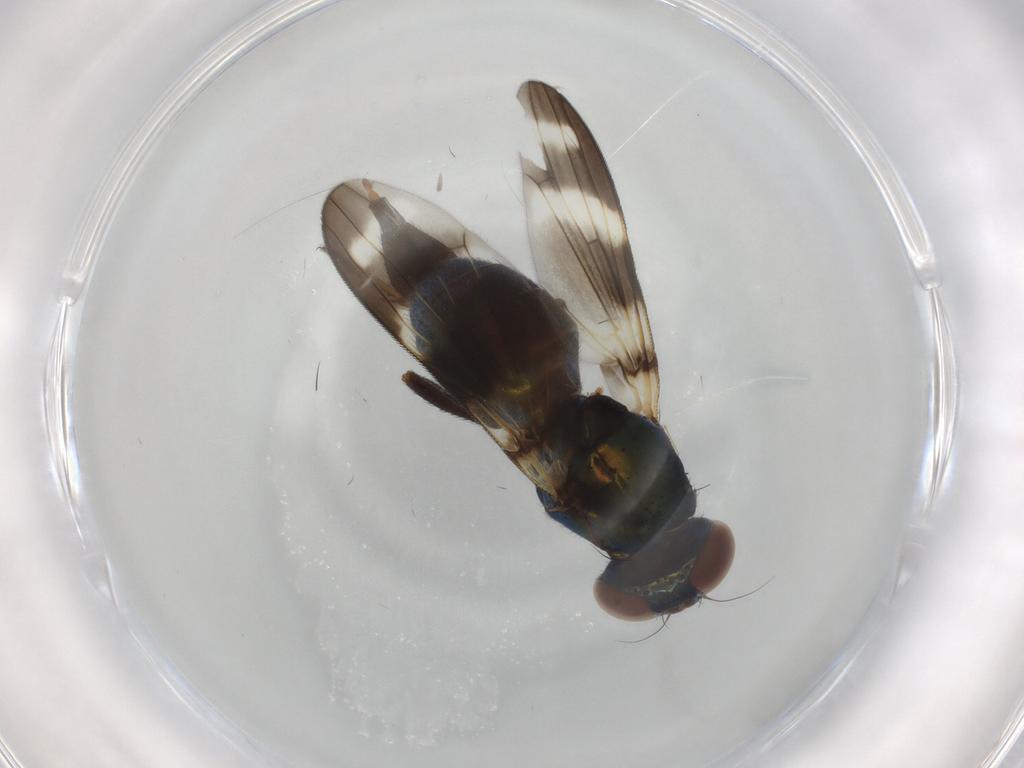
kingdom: Animalia
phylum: Arthropoda
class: Insecta
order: Diptera
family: Ulidiidae
